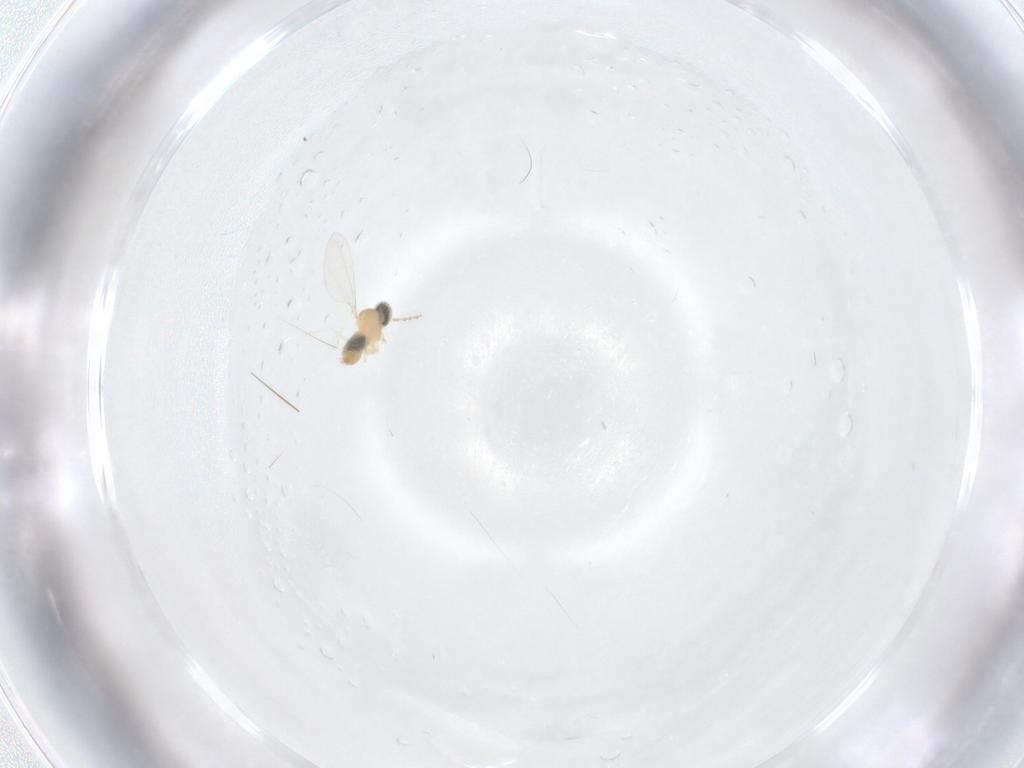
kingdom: Animalia
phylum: Arthropoda
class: Insecta
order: Diptera
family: Cecidomyiidae
